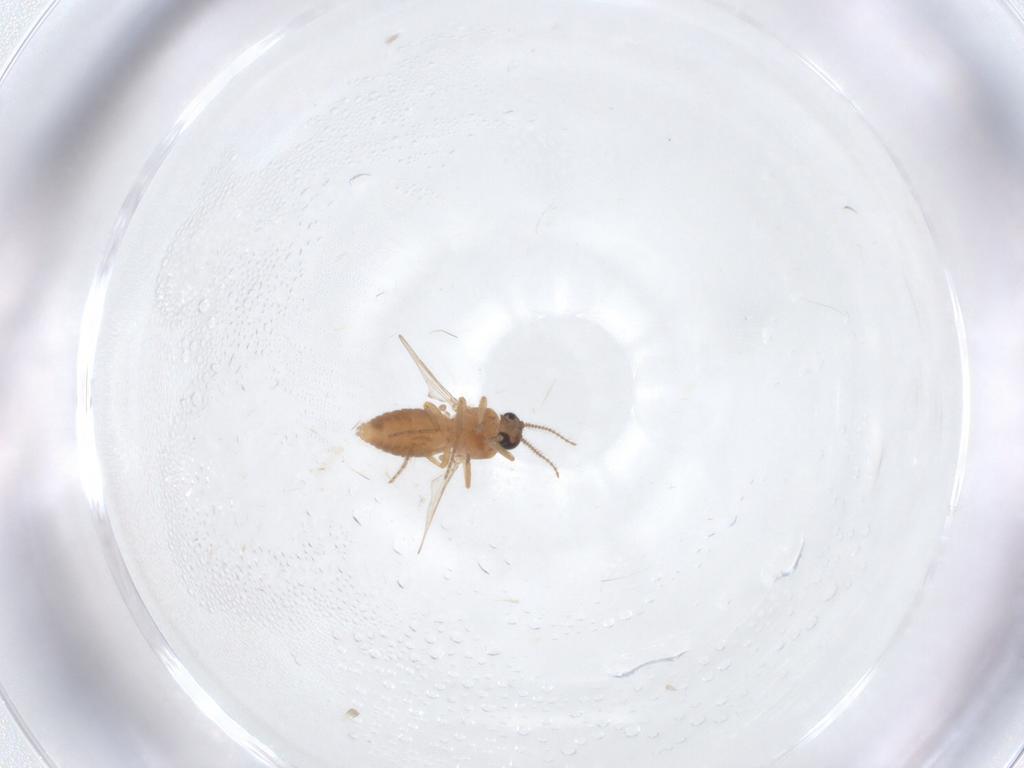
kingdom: Animalia
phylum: Arthropoda
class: Insecta
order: Diptera
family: Ceratopogonidae
